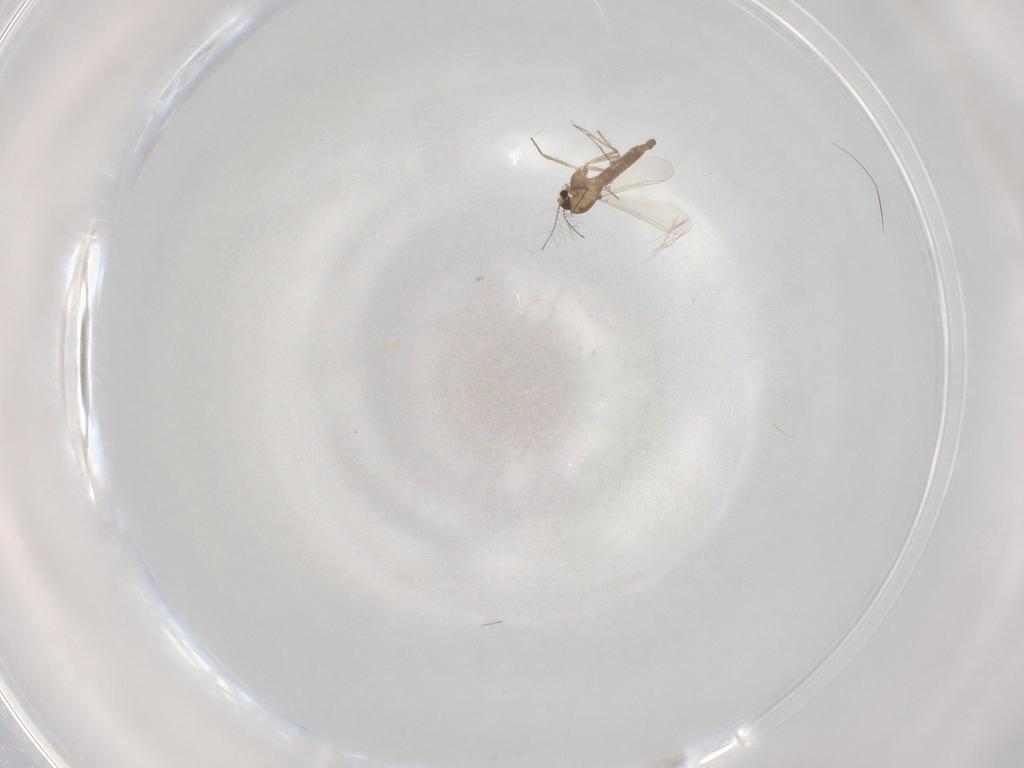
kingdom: Animalia
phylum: Arthropoda
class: Insecta
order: Diptera
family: Chironomidae
